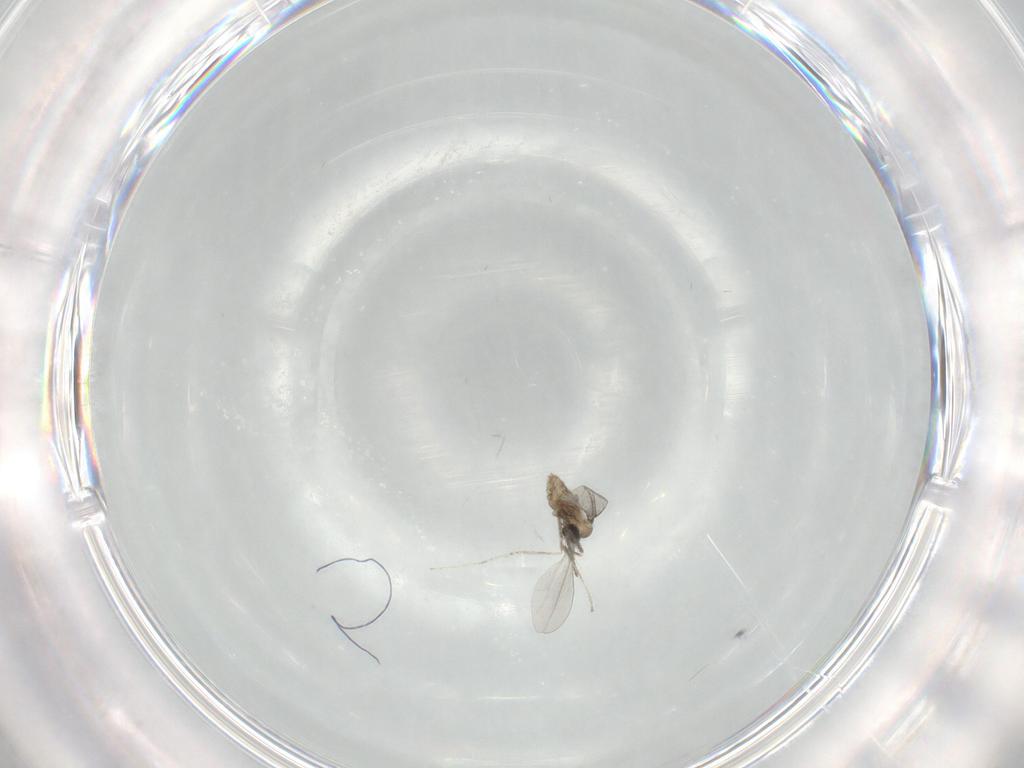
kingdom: Animalia
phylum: Arthropoda
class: Insecta
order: Diptera
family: Cecidomyiidae
